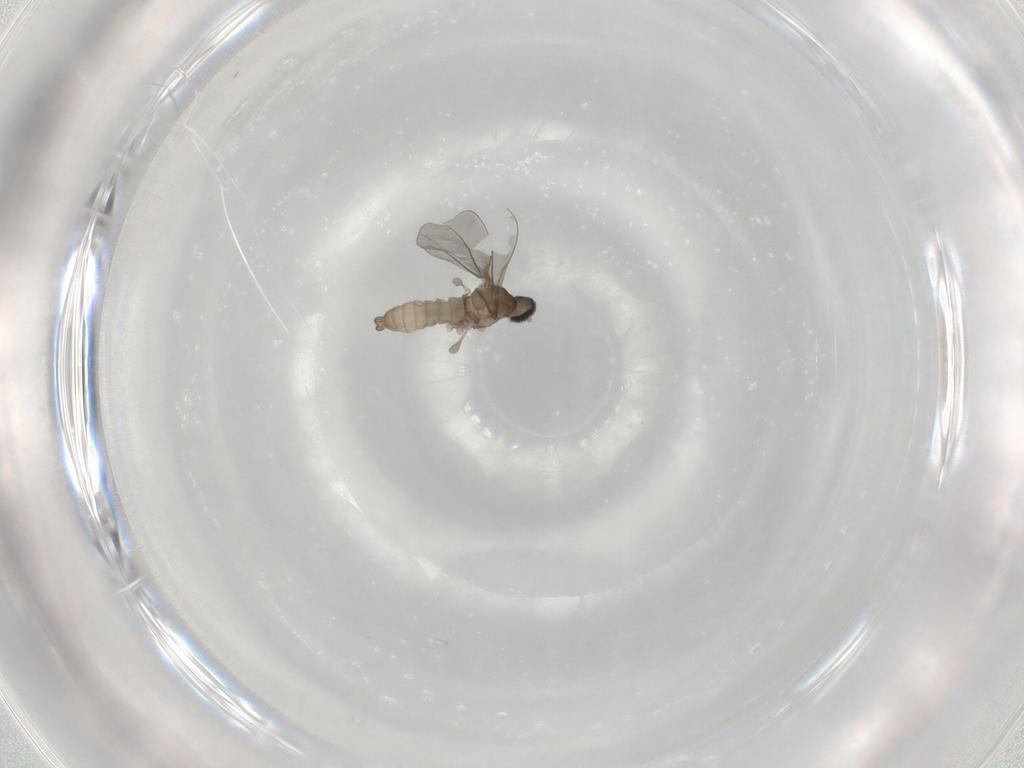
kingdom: Animalia
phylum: Arthropoda
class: Insecta
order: Diptera
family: Cecidomyiidae
